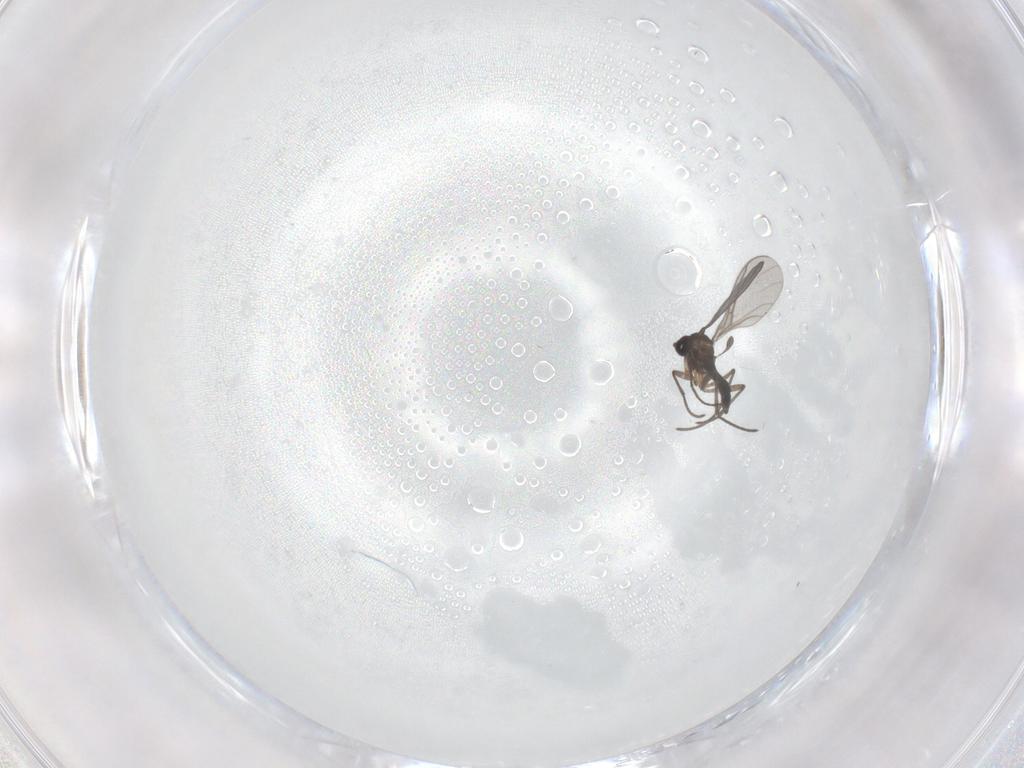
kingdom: Animalia
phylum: Arthropoda
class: Insecta
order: Diptera
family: Sciaridae
